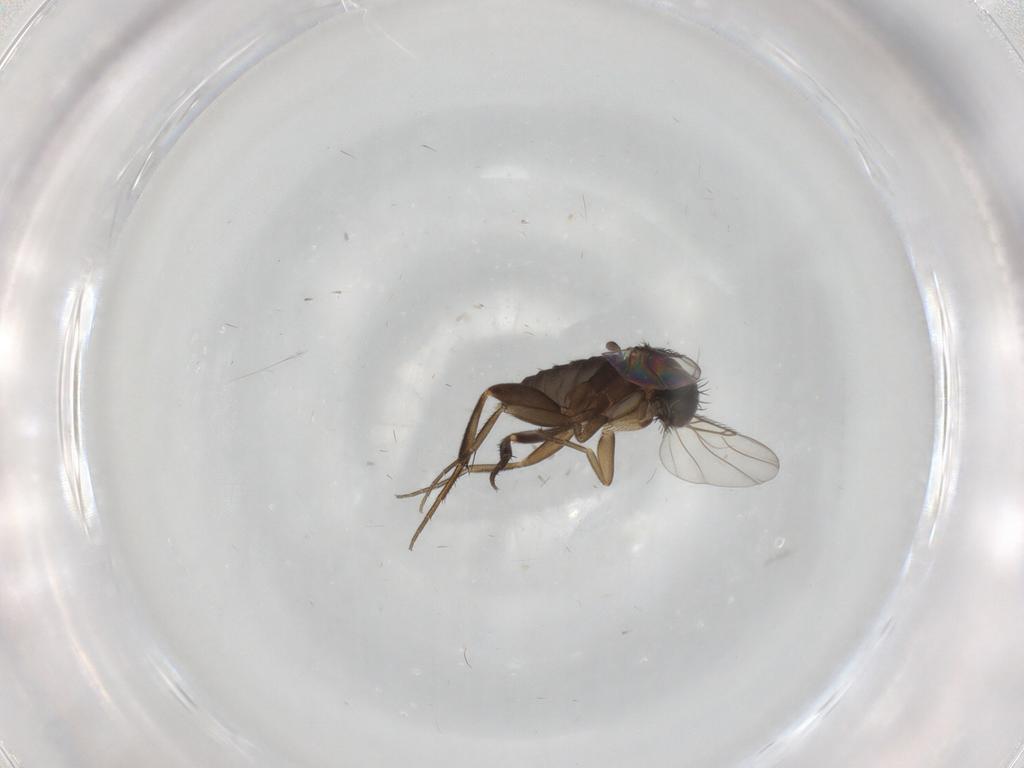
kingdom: Animalia
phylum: Arthropoda
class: Insecta
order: Diptera
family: Phoridae
